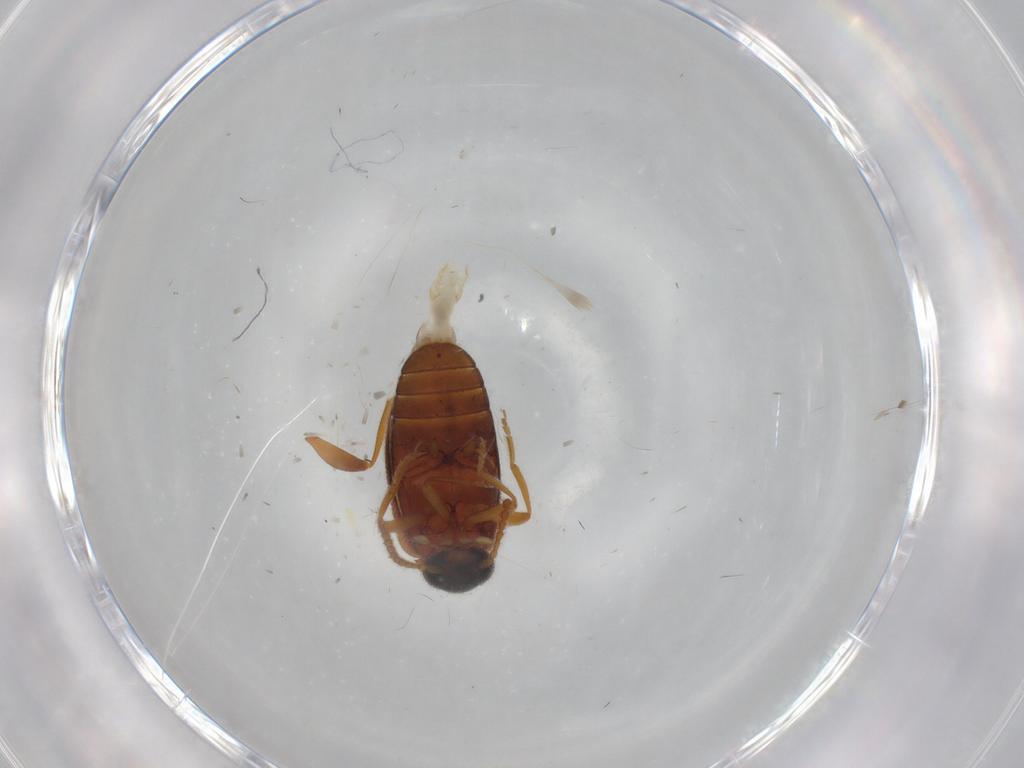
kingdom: Animalia
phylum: Arthropoda
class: Insecta
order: Coleoptera
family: Aderidae
